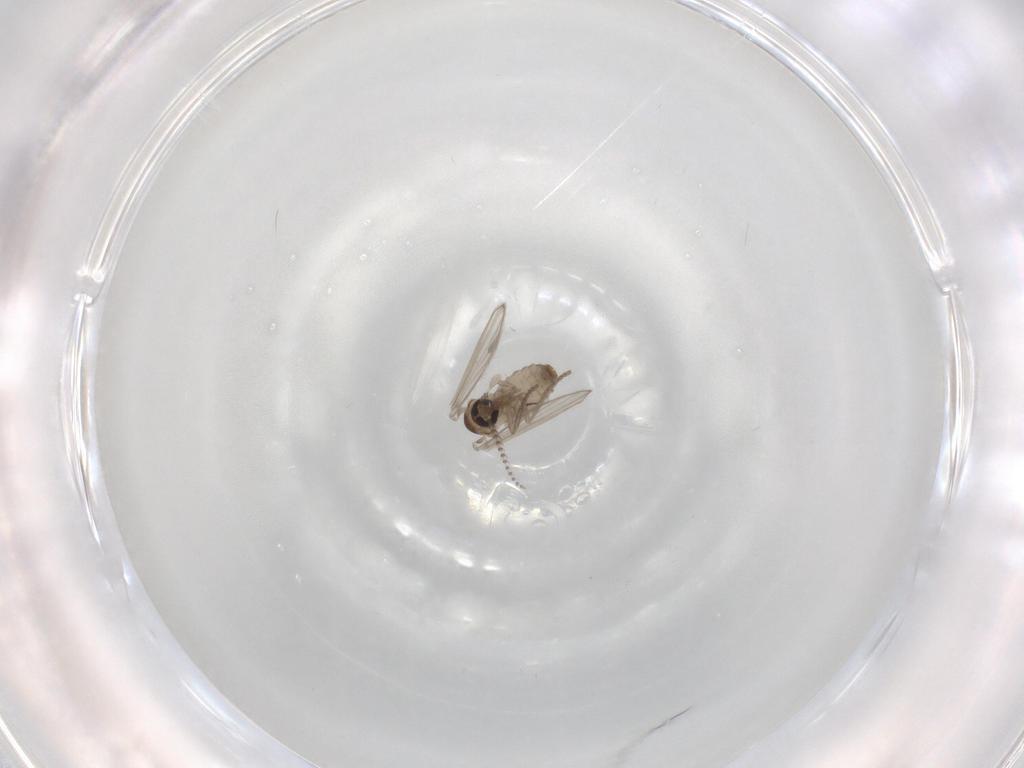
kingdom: Animalia
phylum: Arthropoda
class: Insecta
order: Diptera
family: Psychodidae
